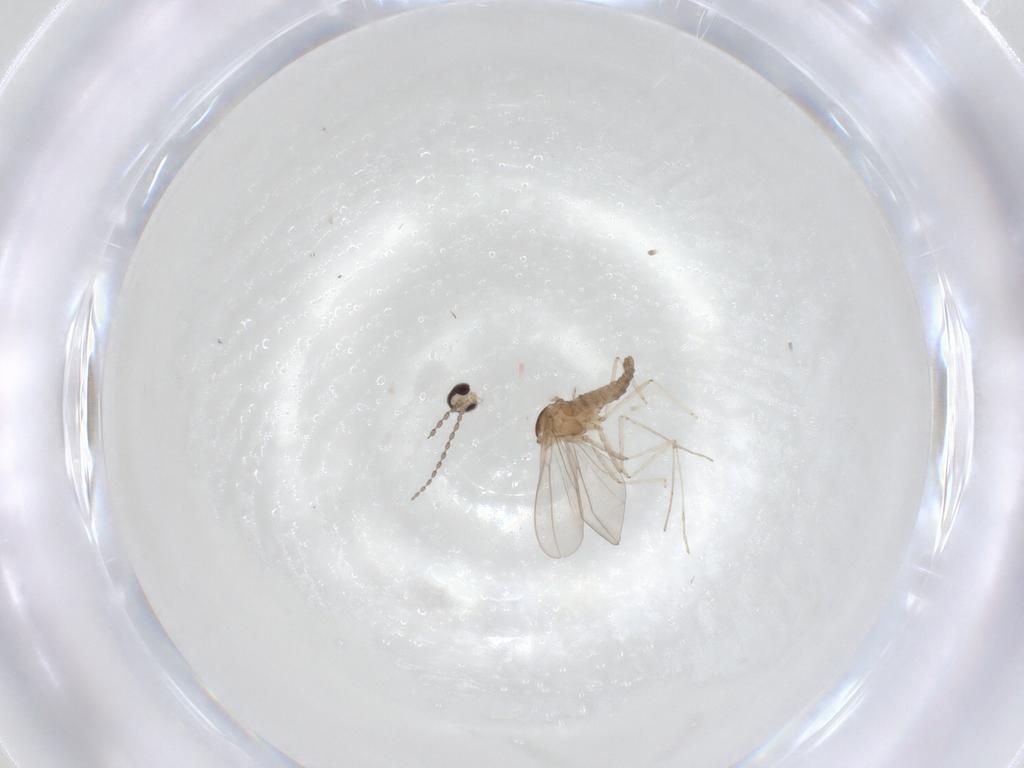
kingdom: Animalia
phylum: Arthropoda
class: Insecta
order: Diptera
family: Cecidomyiidae
